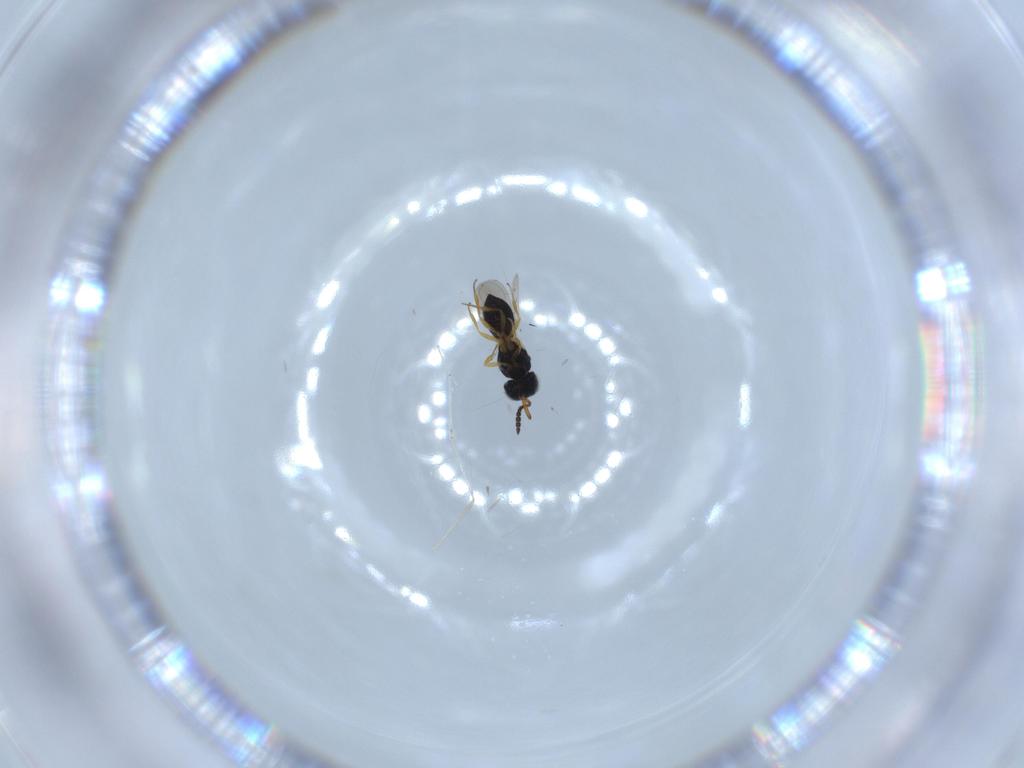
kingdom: Animalia
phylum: Arthropoda
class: Insecta
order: Hymenoptera
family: Scelionidae
